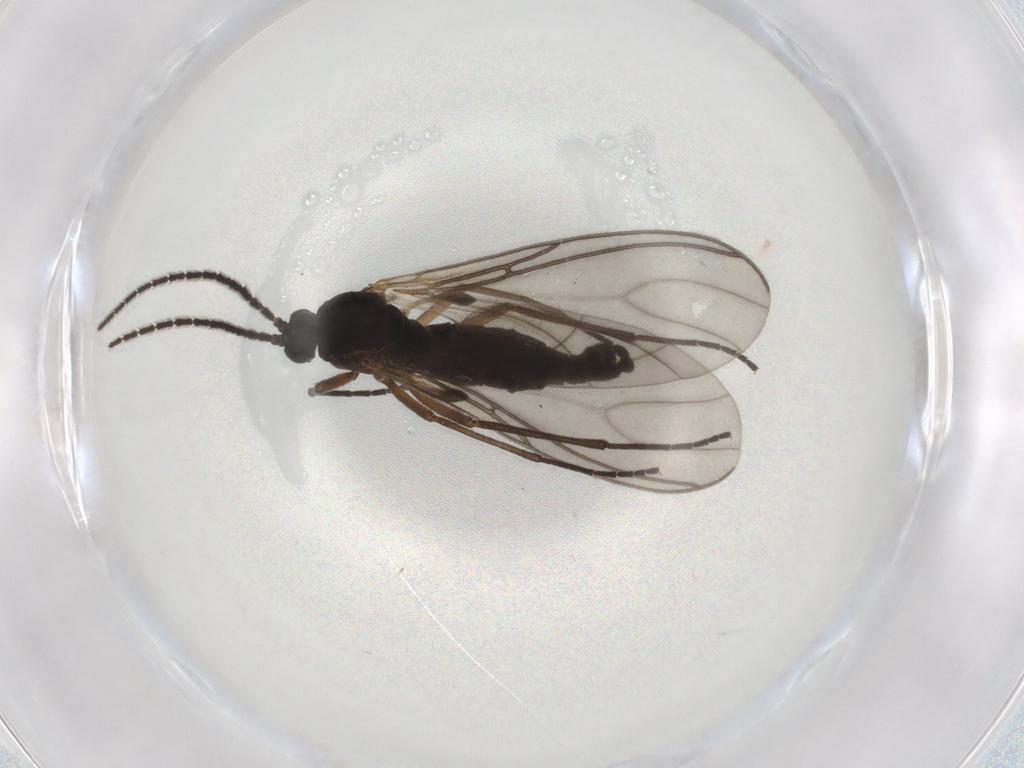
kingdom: Animalia
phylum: Arthropoda
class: Insecta
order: Diptera
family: Sciaridae
